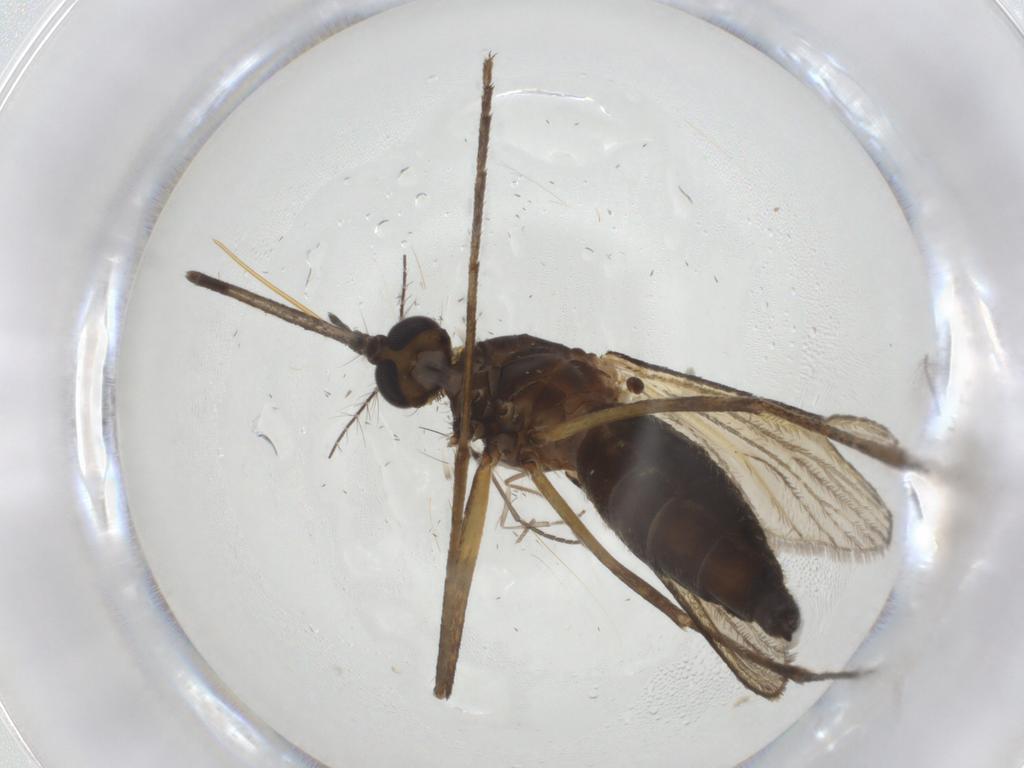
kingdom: Animalia
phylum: Arthropoda
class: Insecta
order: Diptera
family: Culicidae
